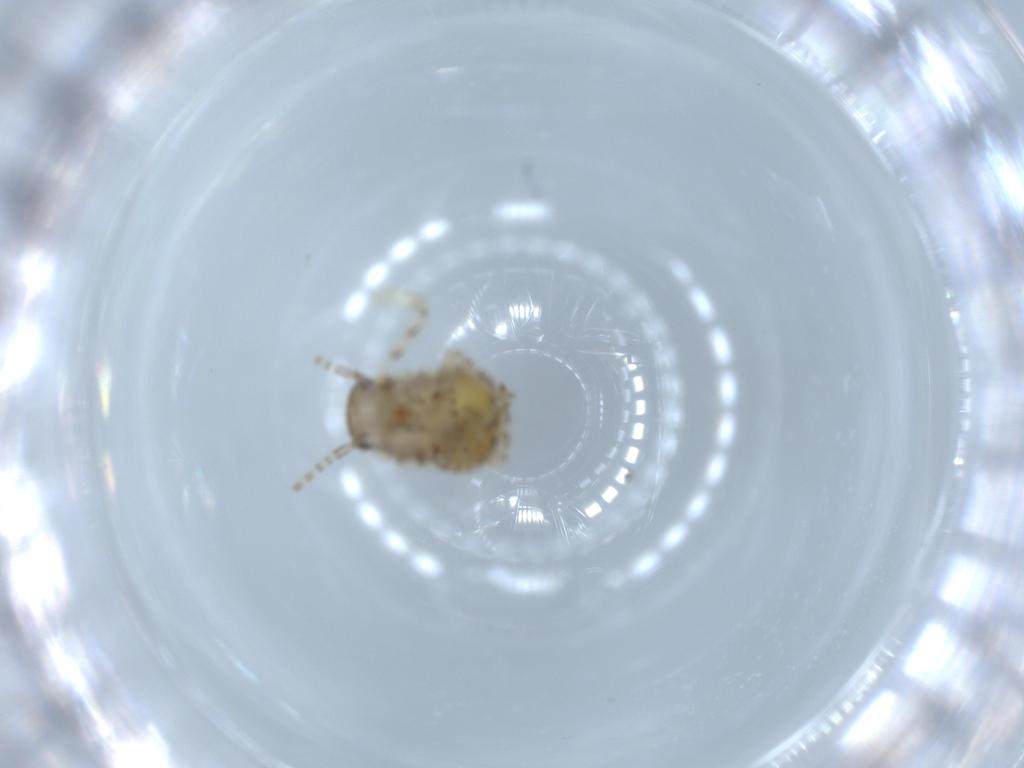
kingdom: Animalia
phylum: Arthropoda
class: Insecta
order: Blattodea
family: Ectobiidae
